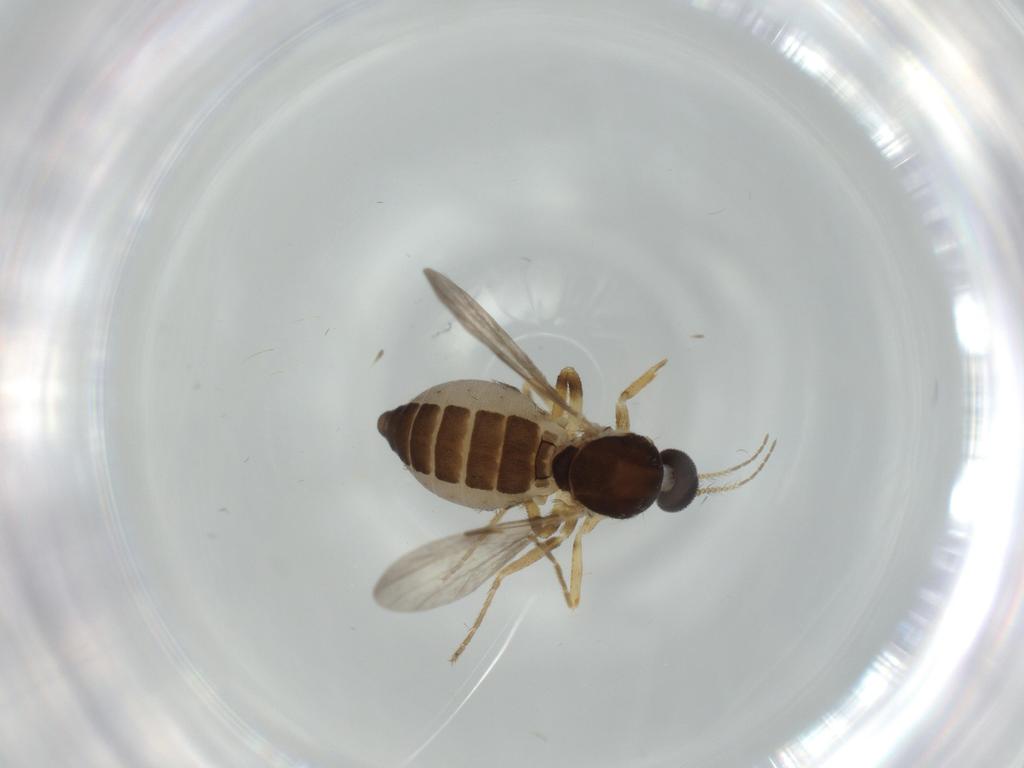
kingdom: Animalia
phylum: Arthropoda
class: Insecta
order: Diptera
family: Ceratopogonidae
